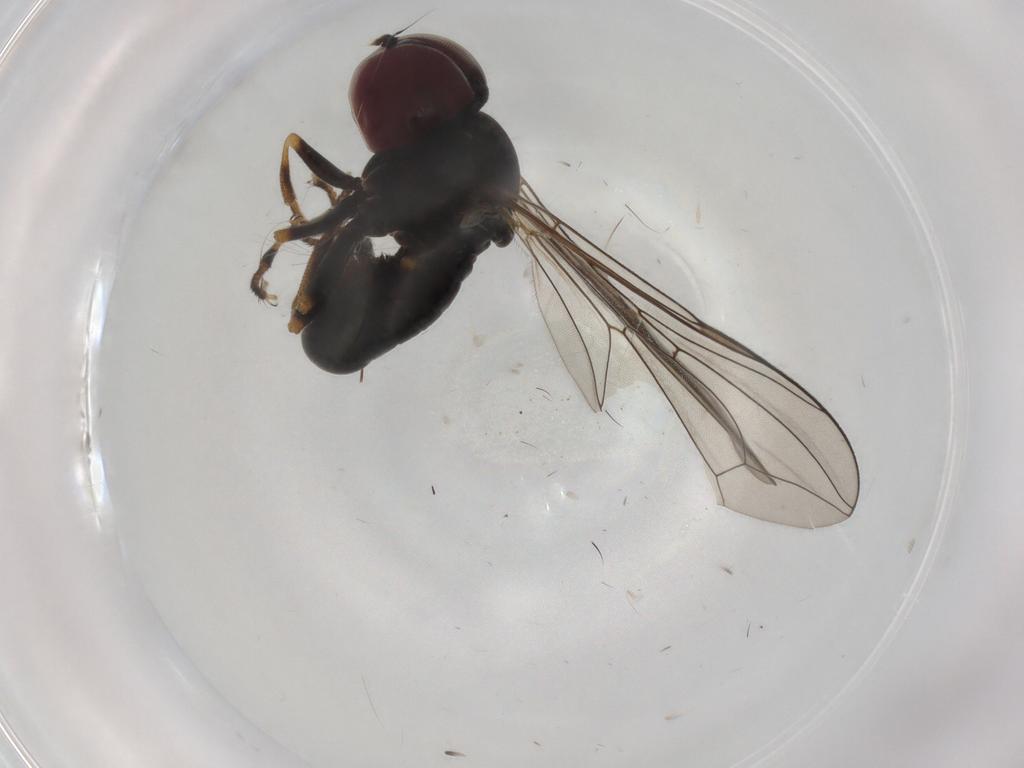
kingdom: Animalia
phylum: Arthropoda
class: Insecta
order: Diptera
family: Pipunculidae
